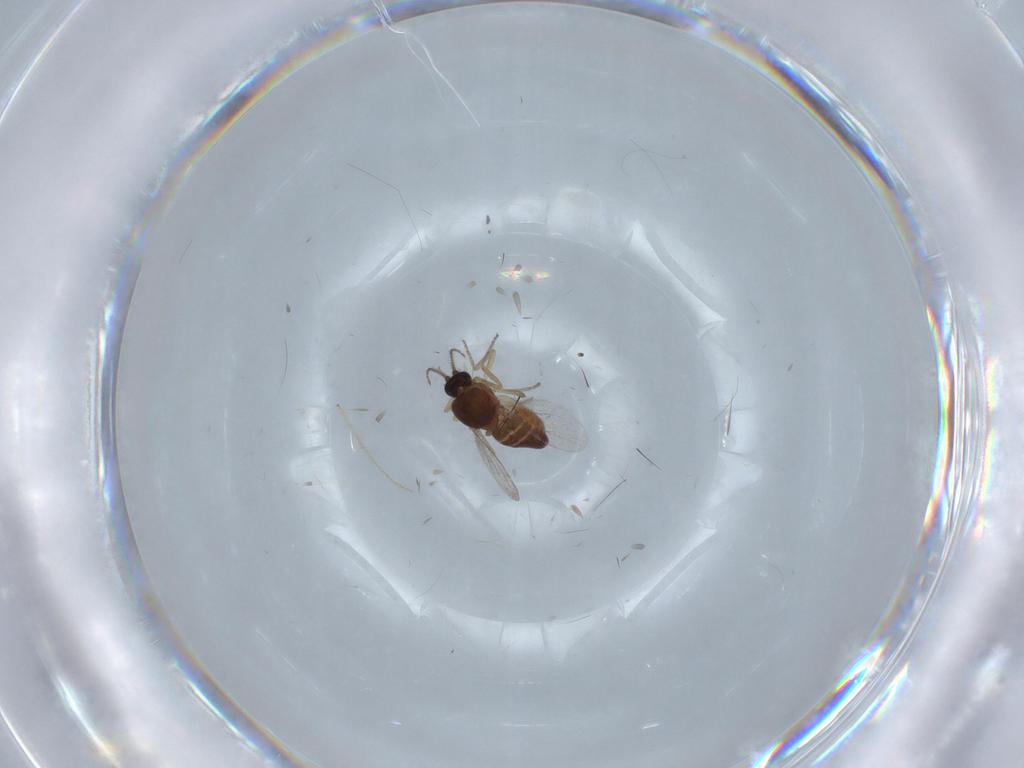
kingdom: Animalia
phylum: Arthropoda
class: Insecta
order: Diptera
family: Ceratopogonidae
